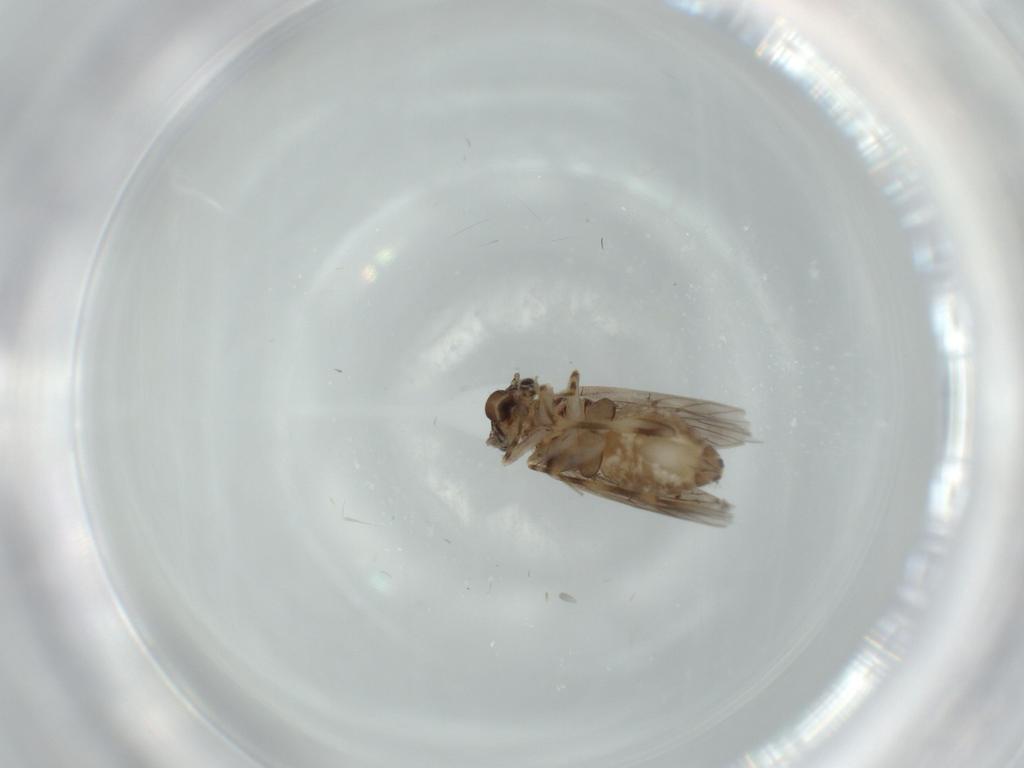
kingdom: Animalia
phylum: Arthropoda
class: Insecta
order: Psocodea
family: Lepidopsocidae
